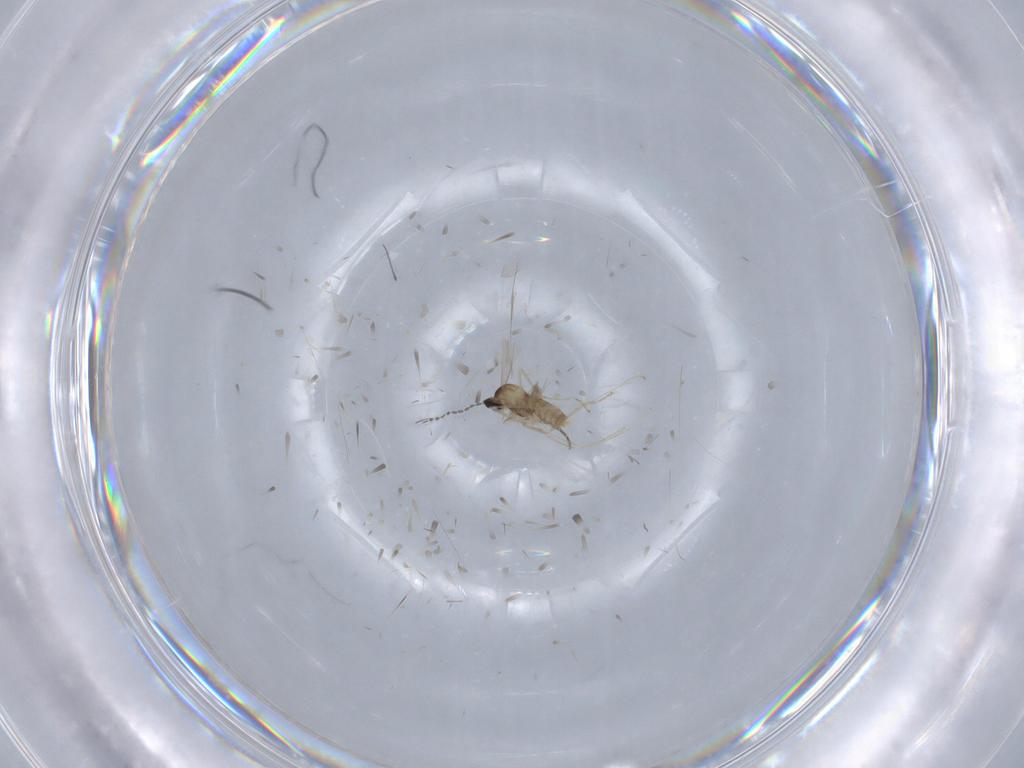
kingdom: Animalia
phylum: Arthropoda
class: Insecta
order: Diptera
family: Cecidomyiidae
